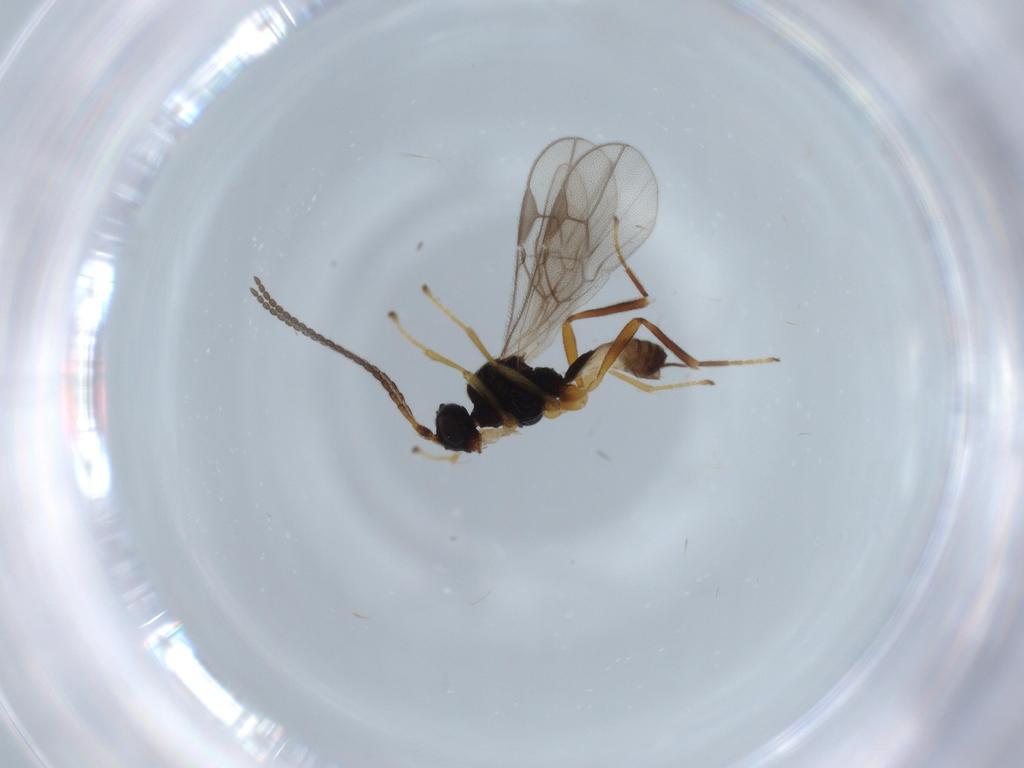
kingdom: Animalia
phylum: Arthropoda
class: Insecta
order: Hymenoptera
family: Braconidae
